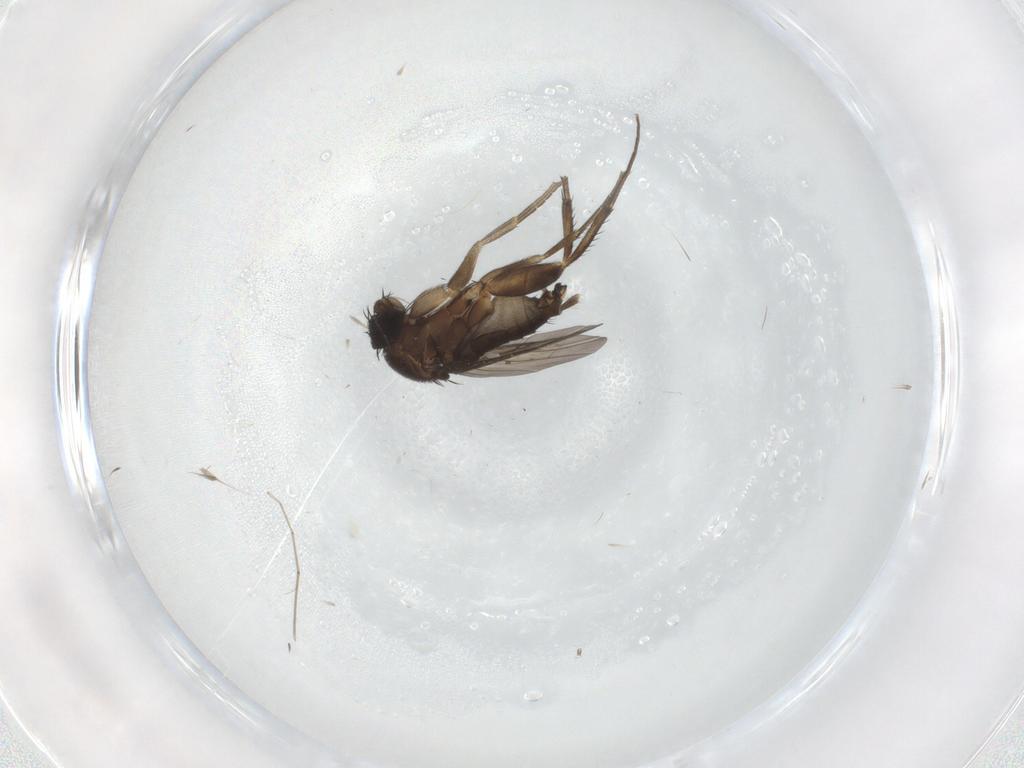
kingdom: Animalia
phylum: Arthropoda
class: Insecta
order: Diptera
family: Phoridae
